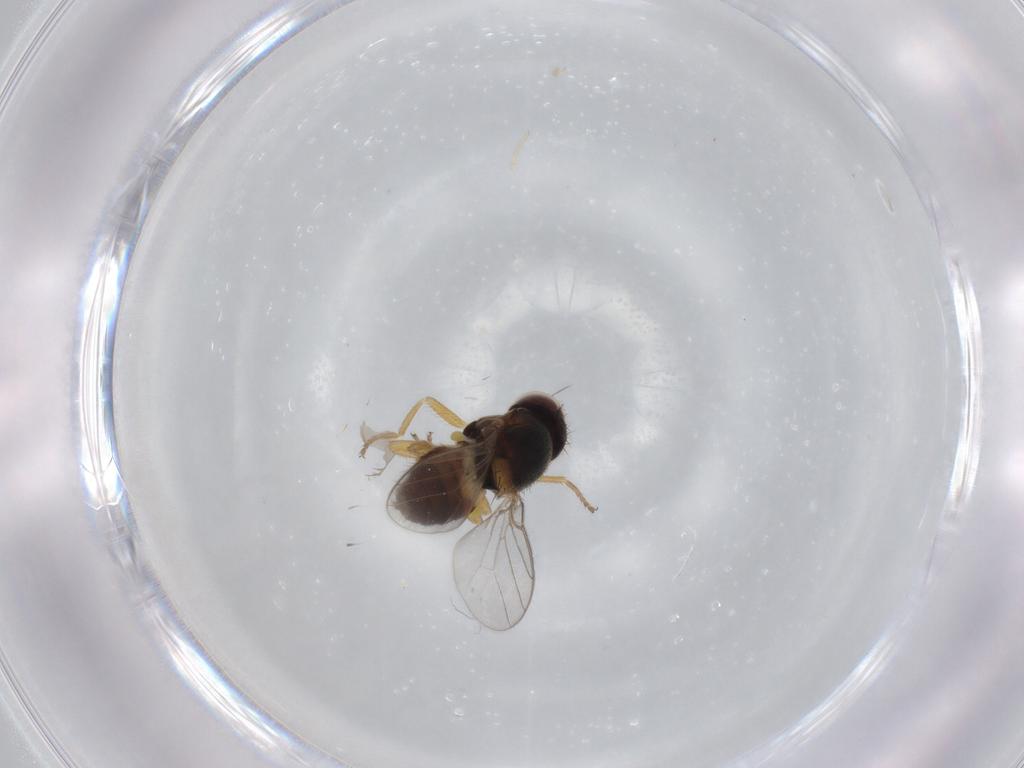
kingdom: Animalia
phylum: Arthropoda
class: Insecta
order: Diptera
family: Chloropidae
